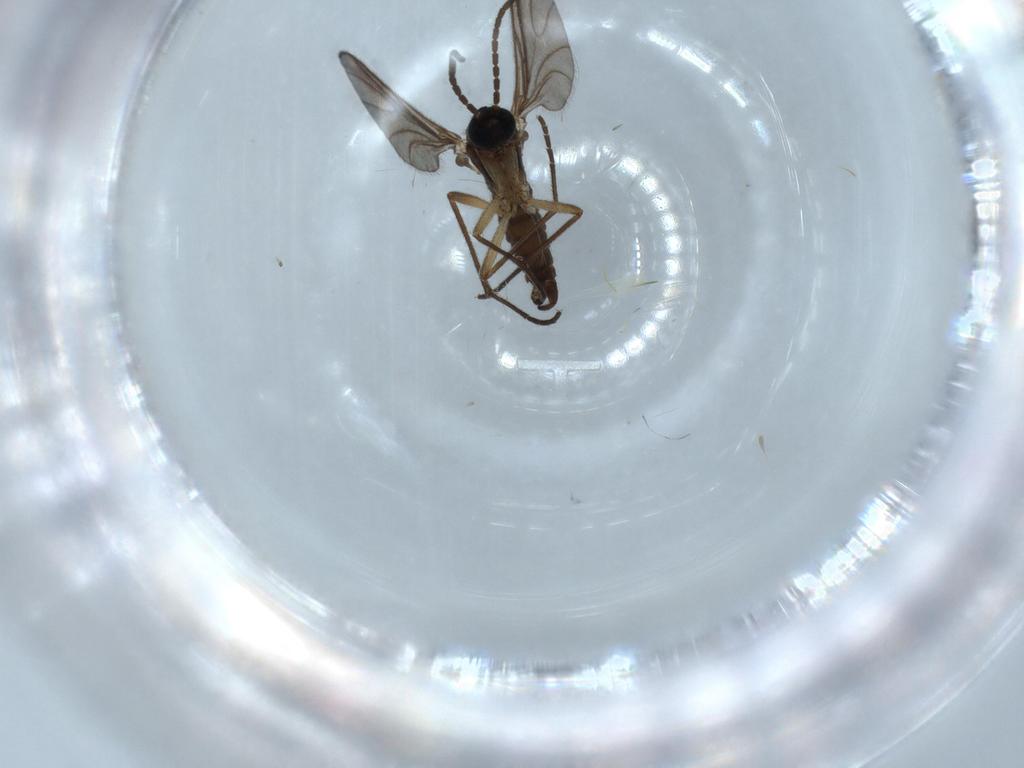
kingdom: Animalia
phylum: Arthropoda
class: Insecta
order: Diptera
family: Sciaridae
